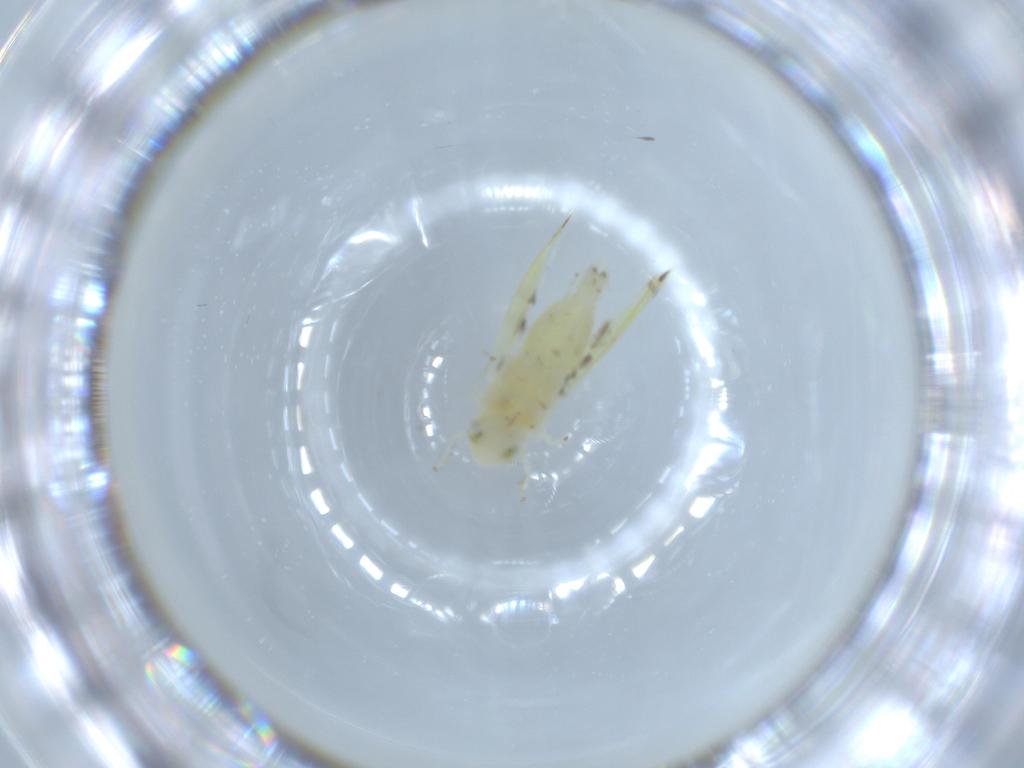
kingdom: Animalia
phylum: Arthropoda
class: Insecta
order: Hemiptera
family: Cicadellidae
